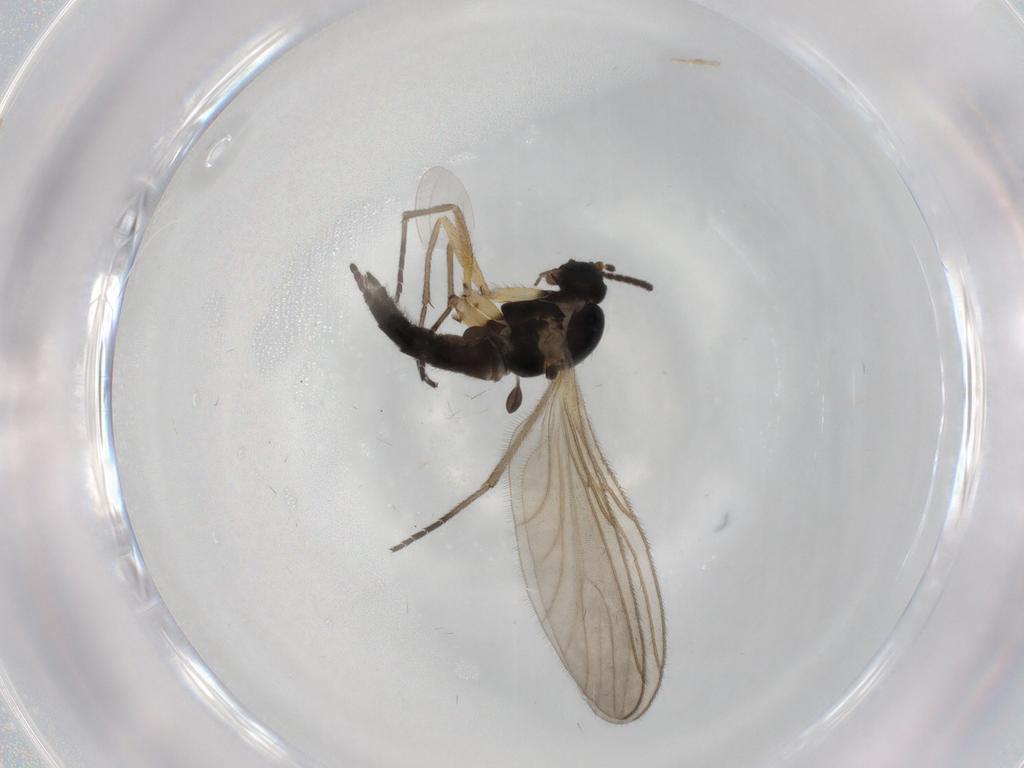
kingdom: Animalia
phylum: Arthropoda
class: Insecta
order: Diptera
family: Sciaridae
